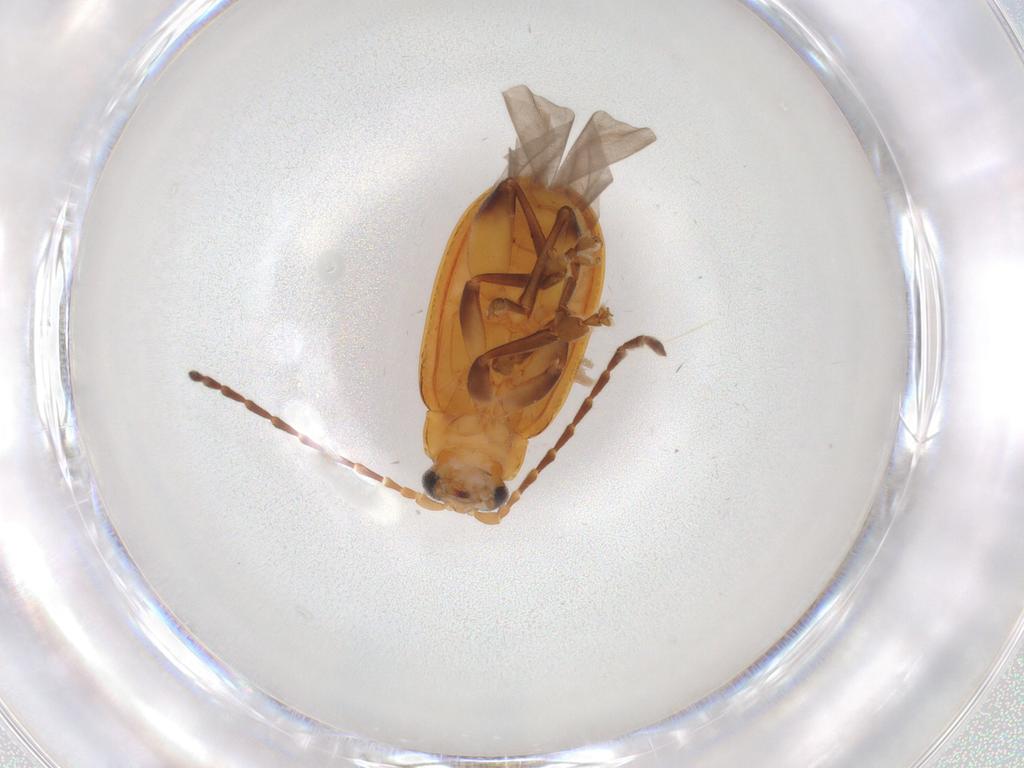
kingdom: Animalia
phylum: Arthropoda
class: Insecta
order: Coleoptera
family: Chrysomelidae
